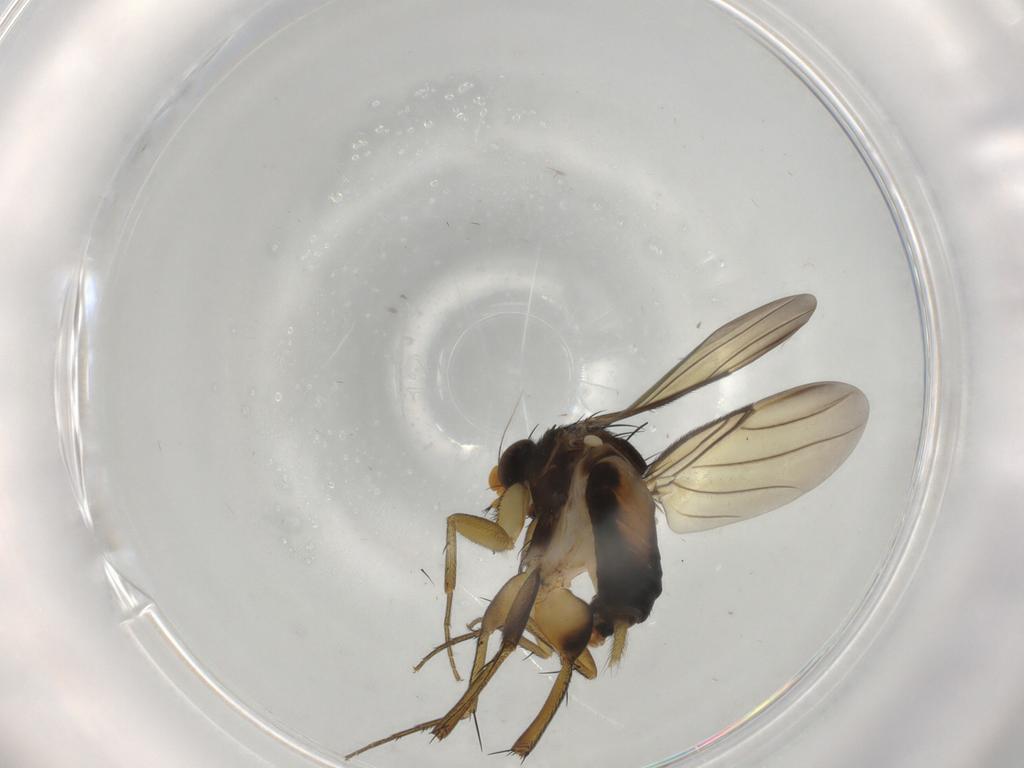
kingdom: Animalia
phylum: Arthropoda
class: Insecta
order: Diptera
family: Phoridae
